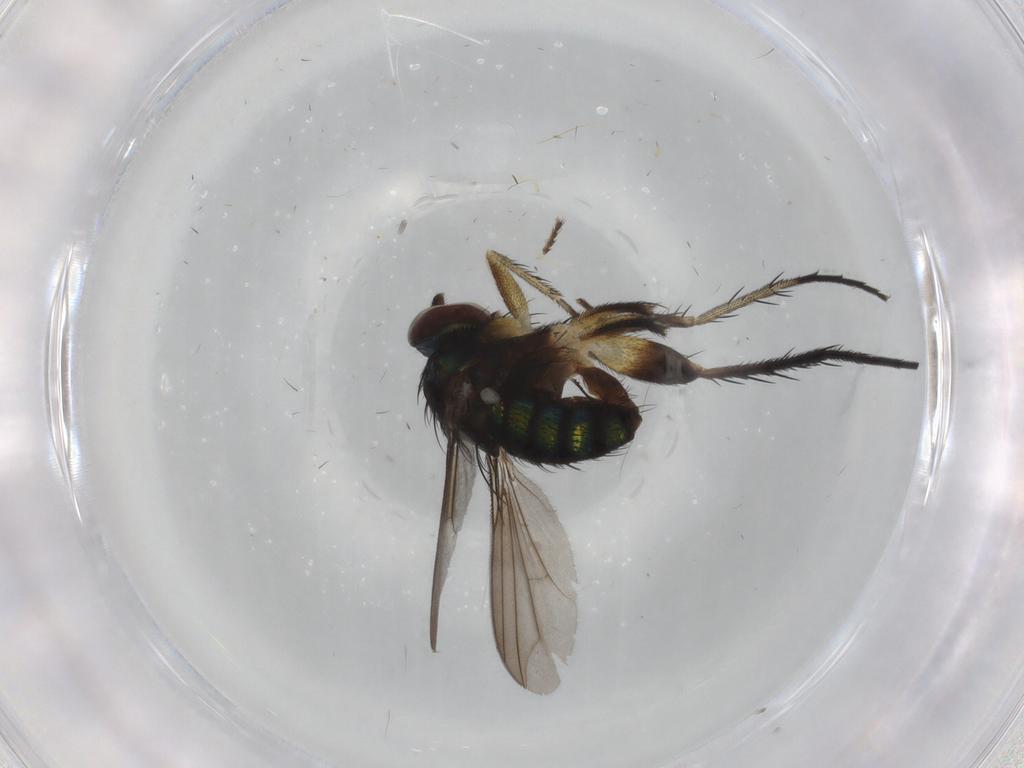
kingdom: Animalia
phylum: Arthropoda
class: Insecta
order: Diptera
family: Dolichopodidae
